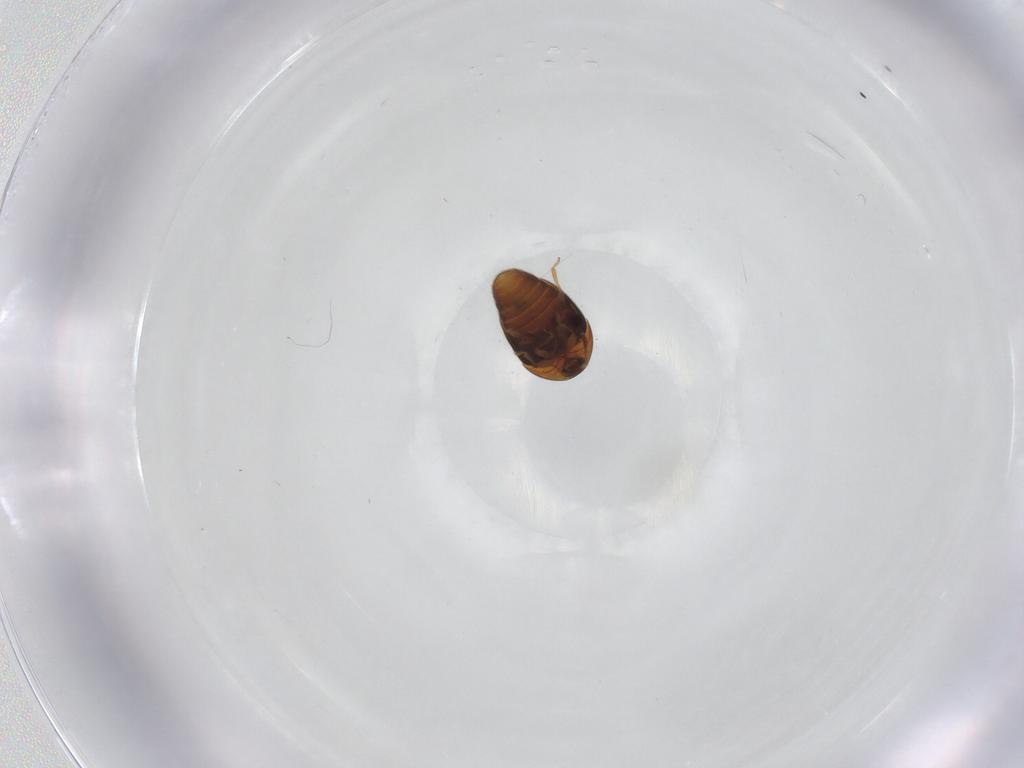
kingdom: Animalia
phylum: Arthropoda
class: Insecta
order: Coleoptera
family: Corylophidae
